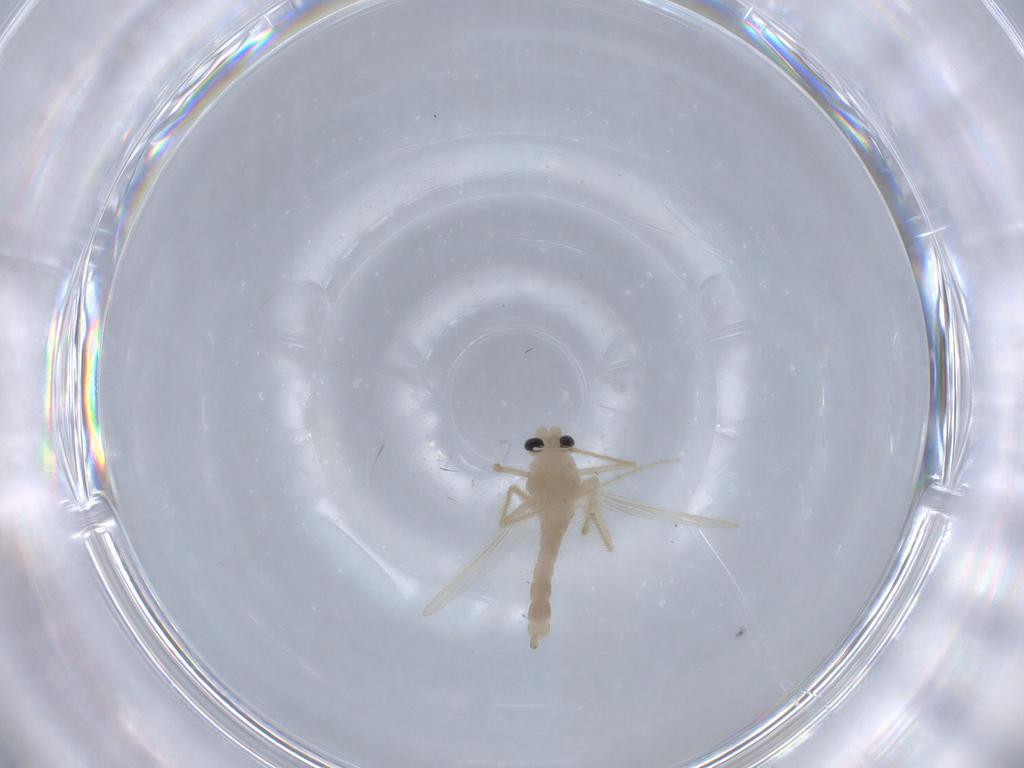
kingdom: Animalia
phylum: Arthropoda
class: Insecta
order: Diptera
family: Chironomidae
